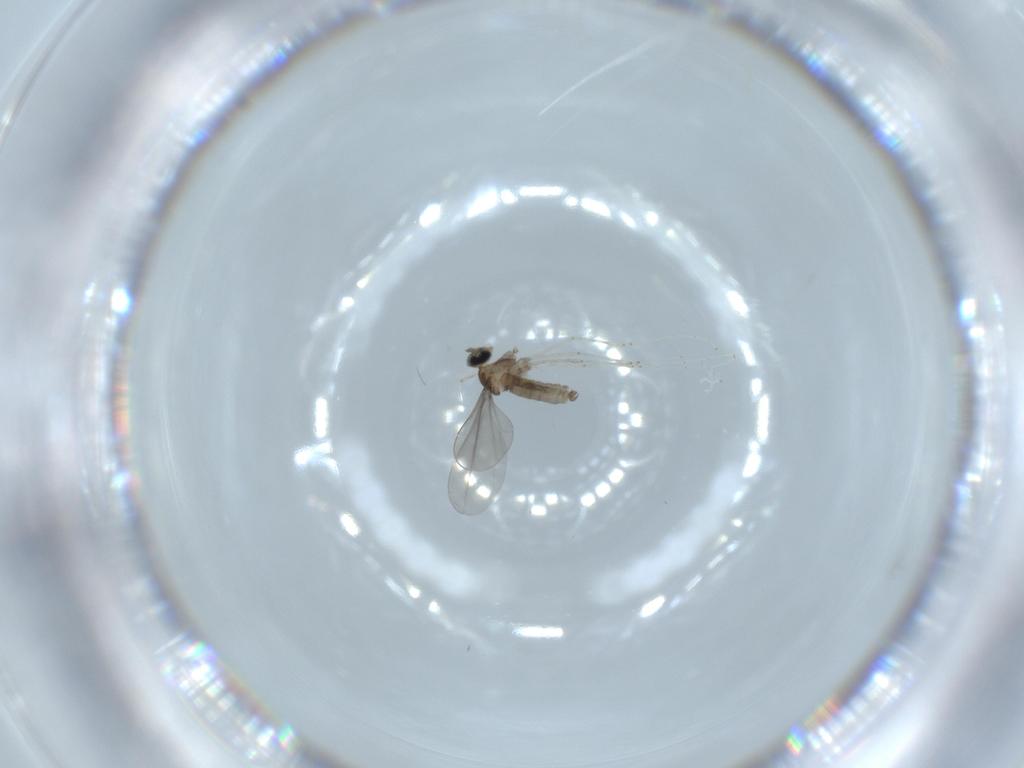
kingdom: Animalia
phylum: Arthropoda
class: Insecta
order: Diptera
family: Cecidomyiidae
